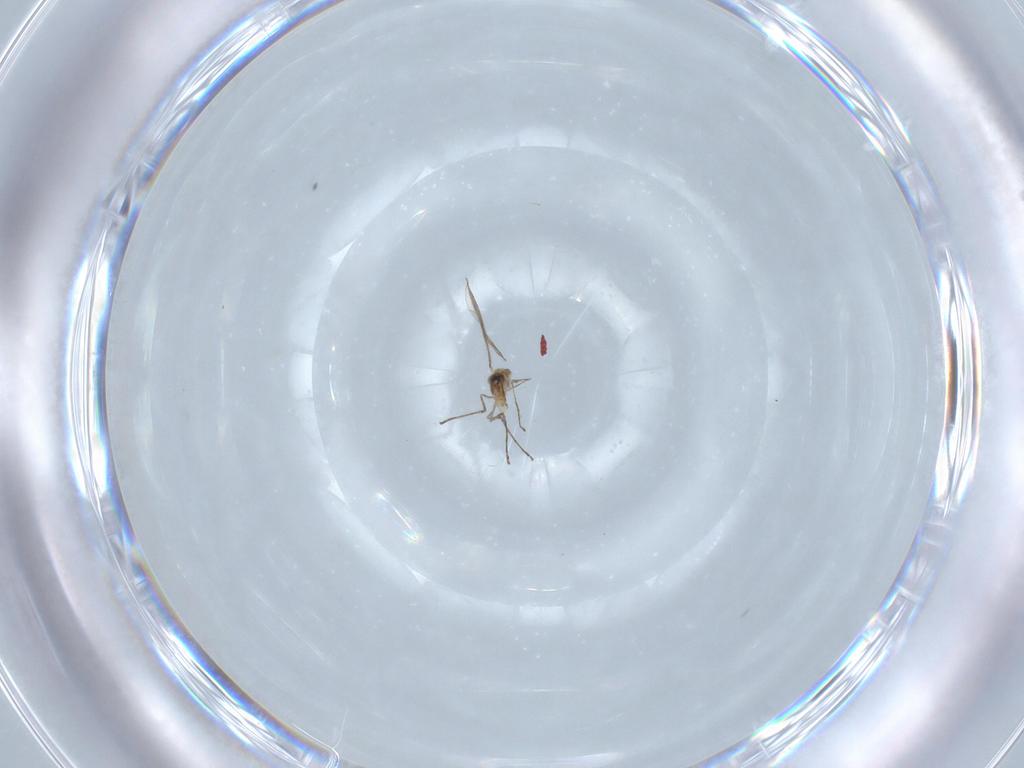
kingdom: Animalia
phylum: Arthropoda
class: Insecta
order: Diptera
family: Cecidomyiidae
